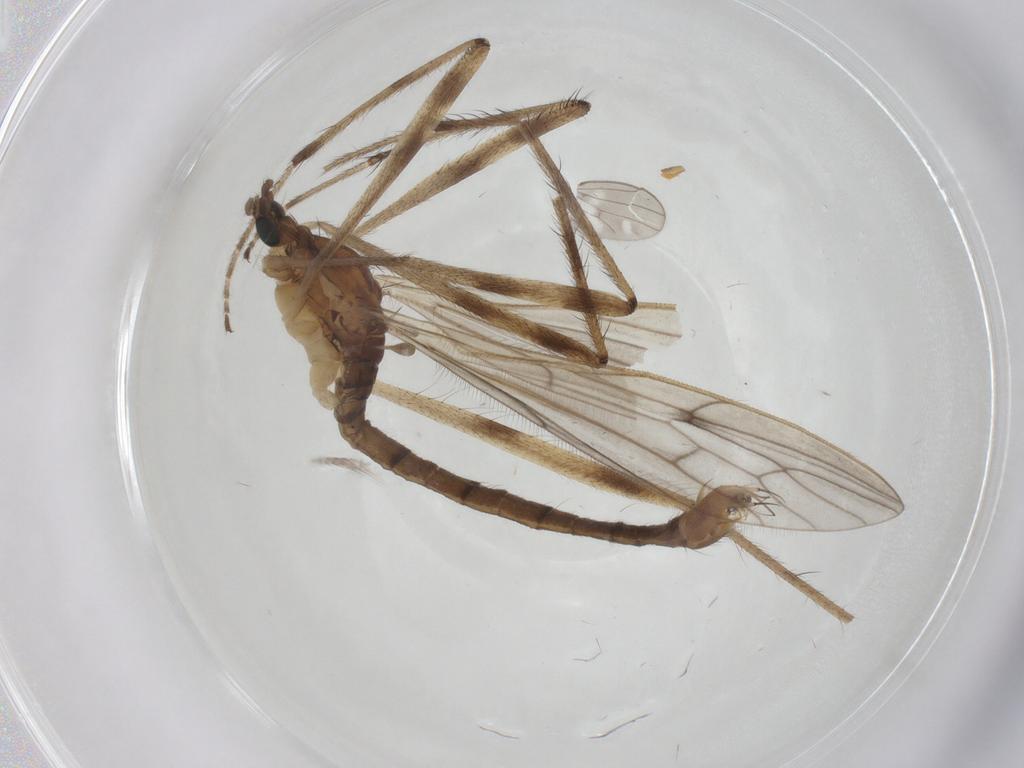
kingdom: Animalia
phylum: Arthropoda
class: Insecta
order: Diptera
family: Limoniidae
